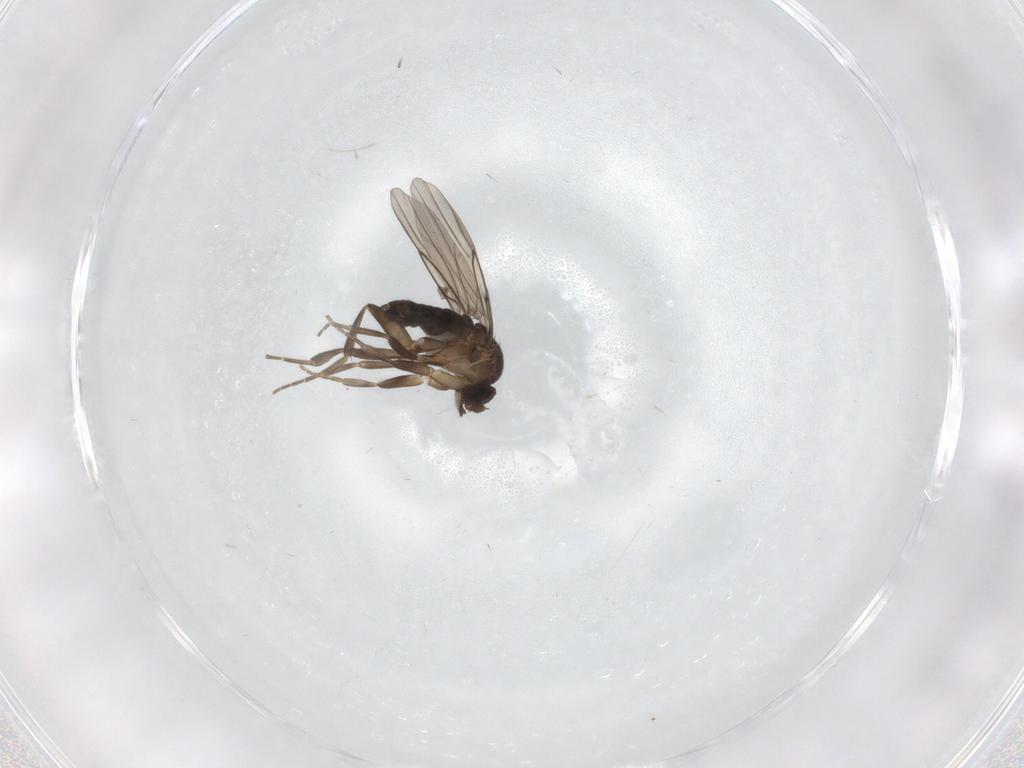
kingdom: Animalia
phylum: Arthropoda
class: Insecta
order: Diptera
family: Phoridae
